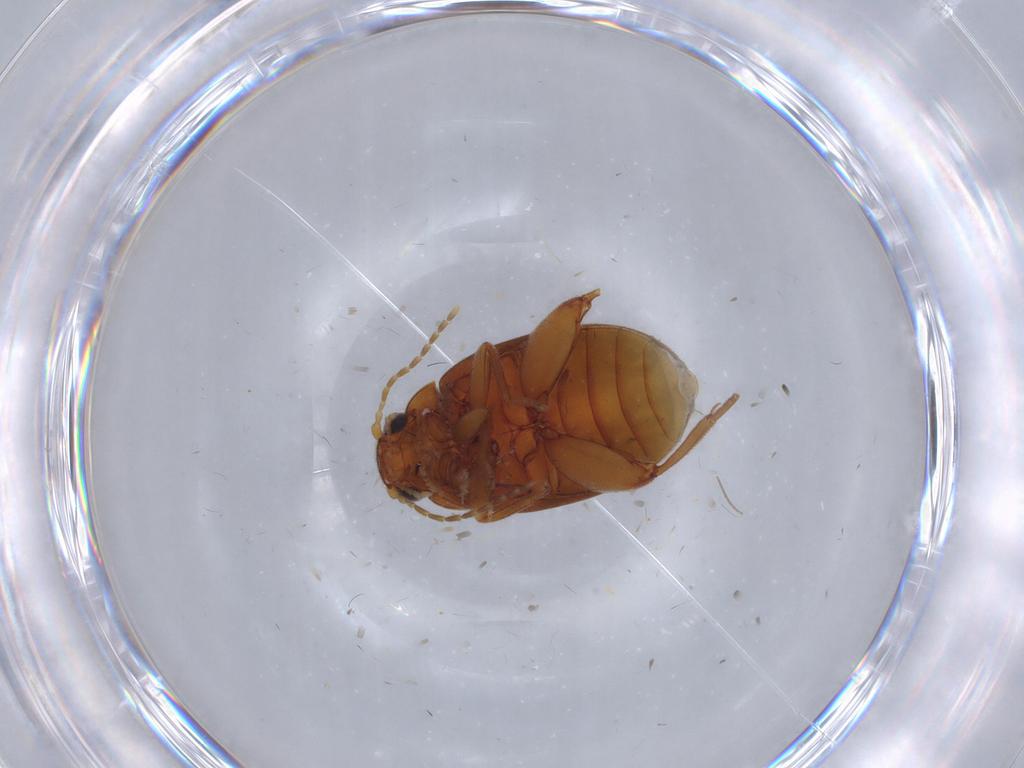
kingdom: Animalia
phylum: Arthropoda
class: Insecta
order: Coleoptera
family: Scirtidae
